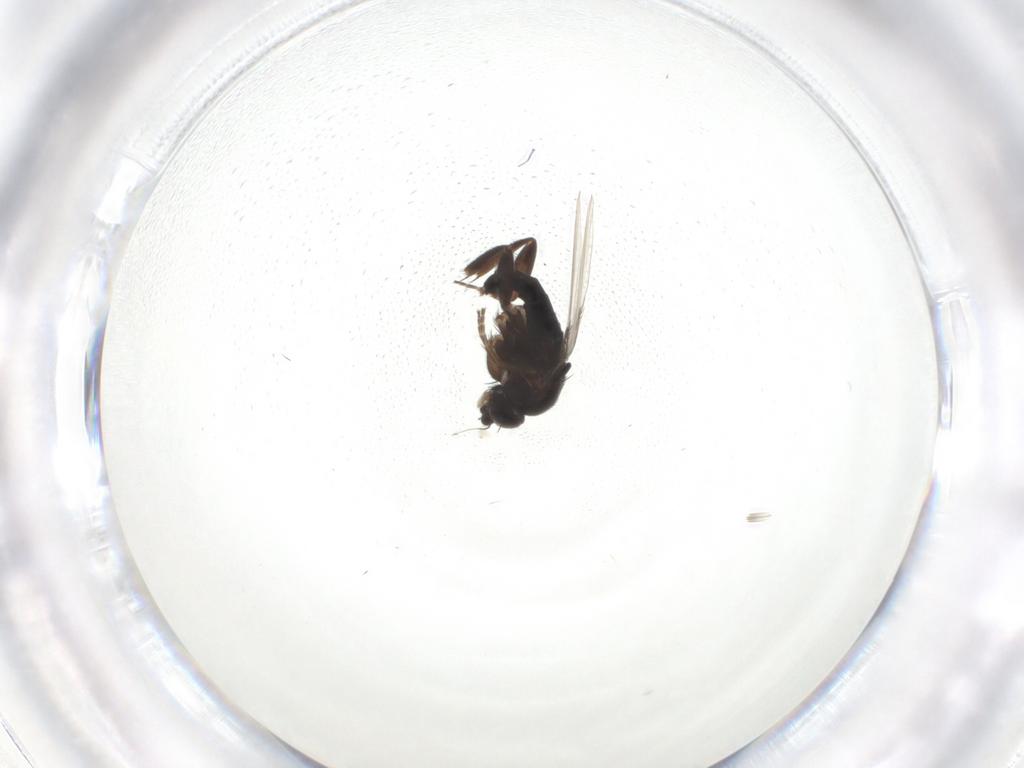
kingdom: Animalia
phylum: Arthropoda
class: Insecta
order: Diptera
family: Phoridae
